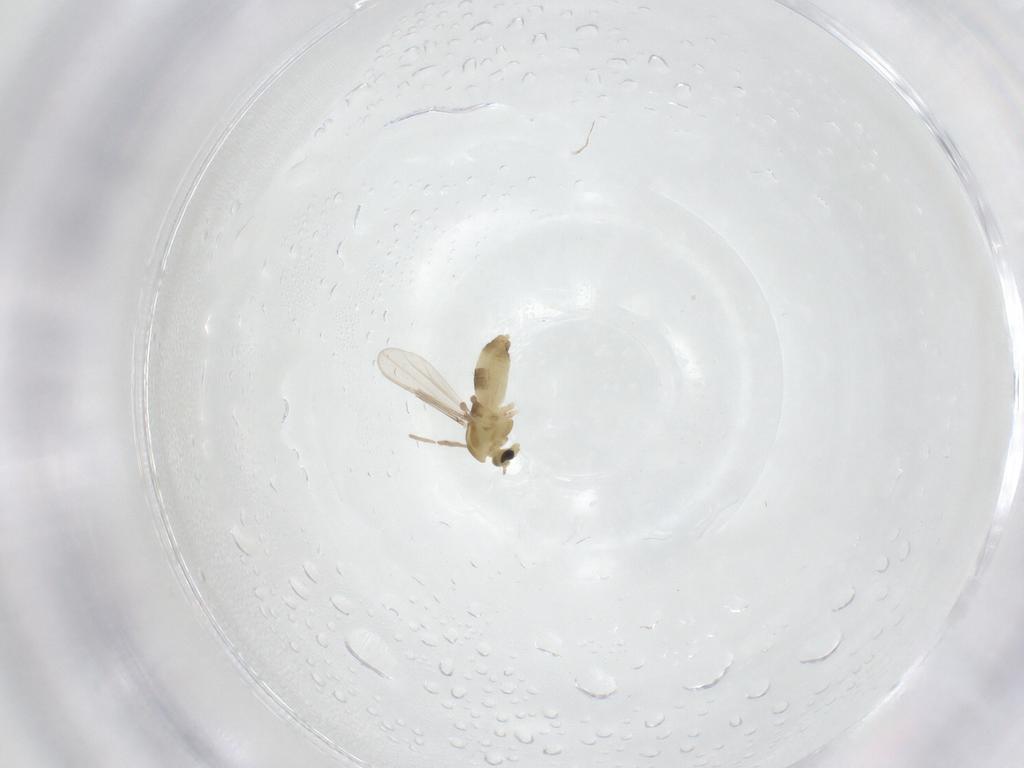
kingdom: Animalia
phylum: Arthropoda
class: Insecta
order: Diptera
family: Chironomidae
